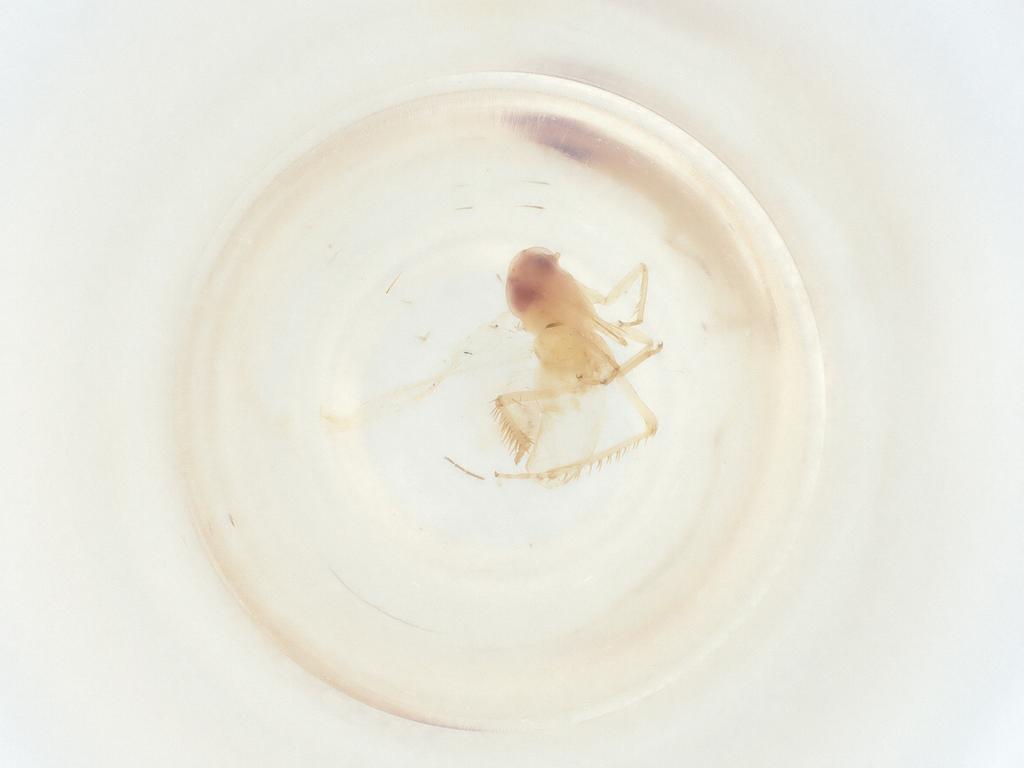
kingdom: Animalia
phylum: Arthropoda
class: Insecta
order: Hemiptera
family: Cicadellidae
